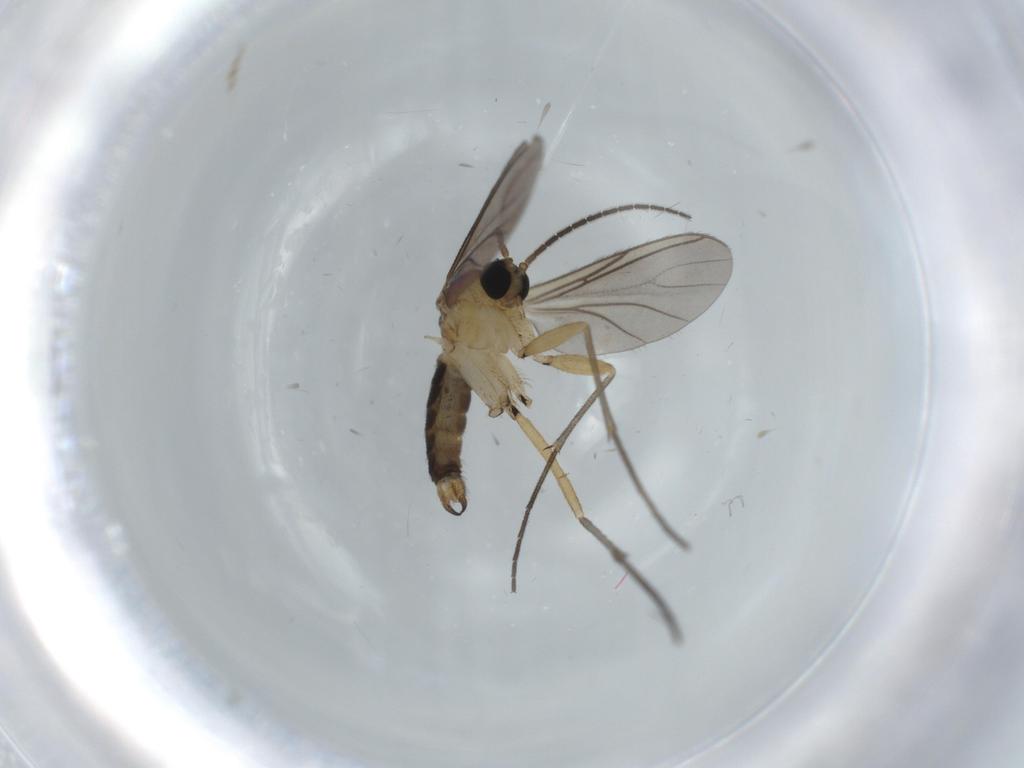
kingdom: Animalia
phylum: Arthropoda
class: Insecta
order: Diptera
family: Sciaridae
